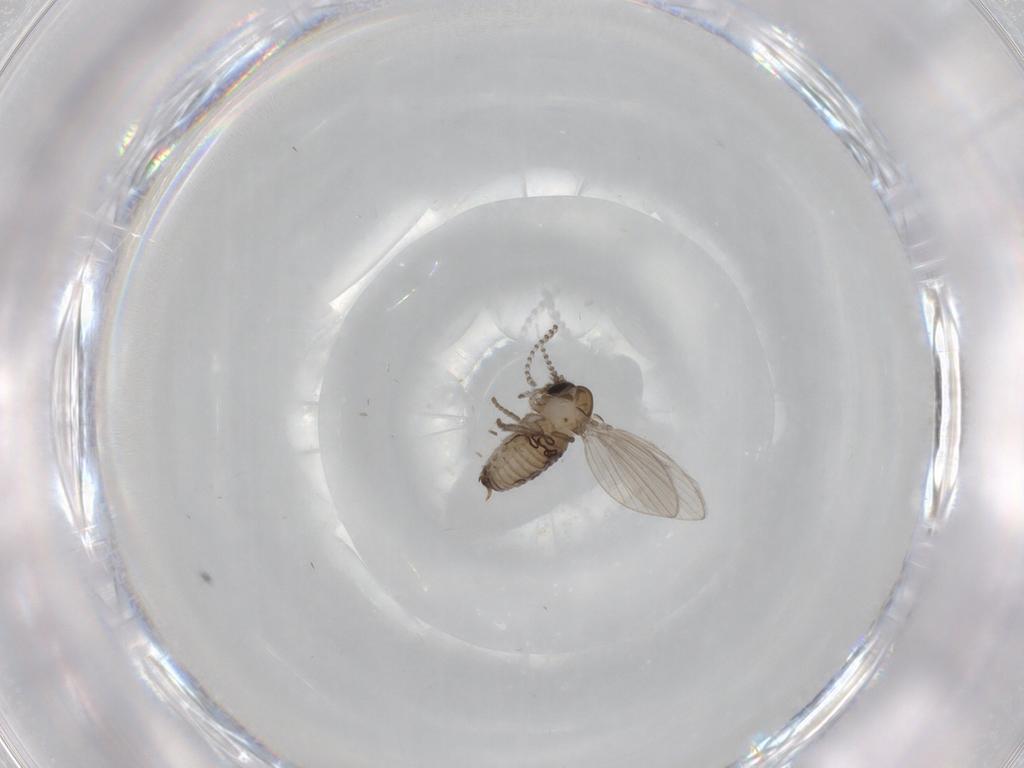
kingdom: Animalia
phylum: Arthropoda
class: Insecta
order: Diptera
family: Psychodidae
